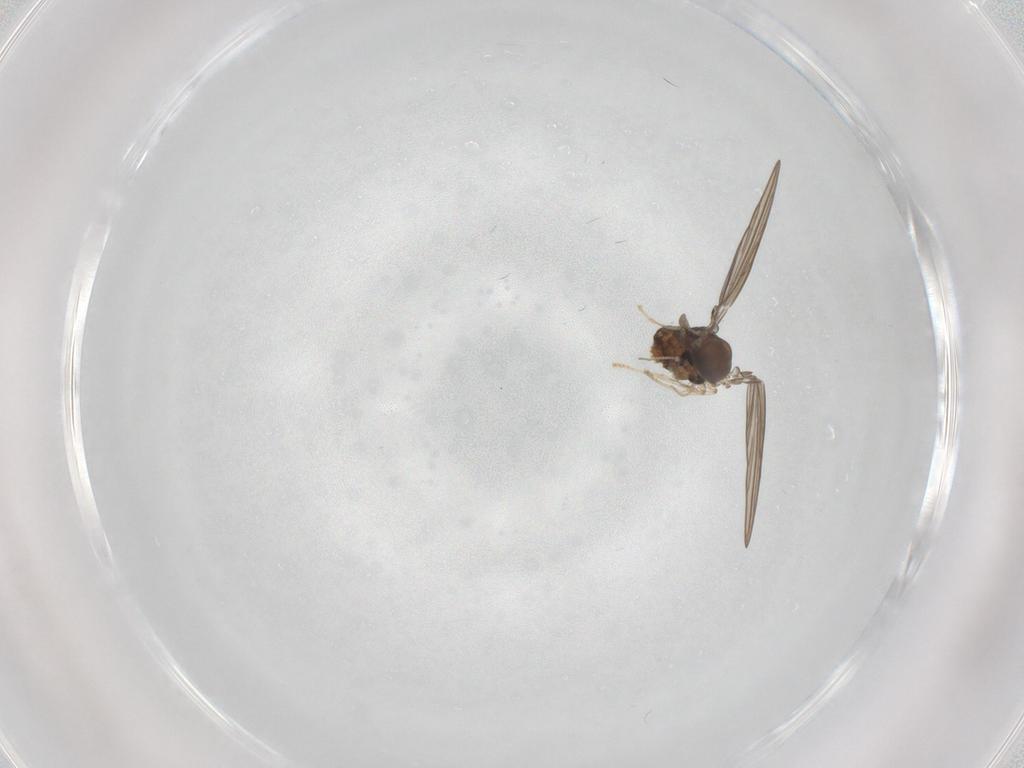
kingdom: Animalia
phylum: Arthropoda
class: Insecta
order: Diptera
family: Psychodidae
